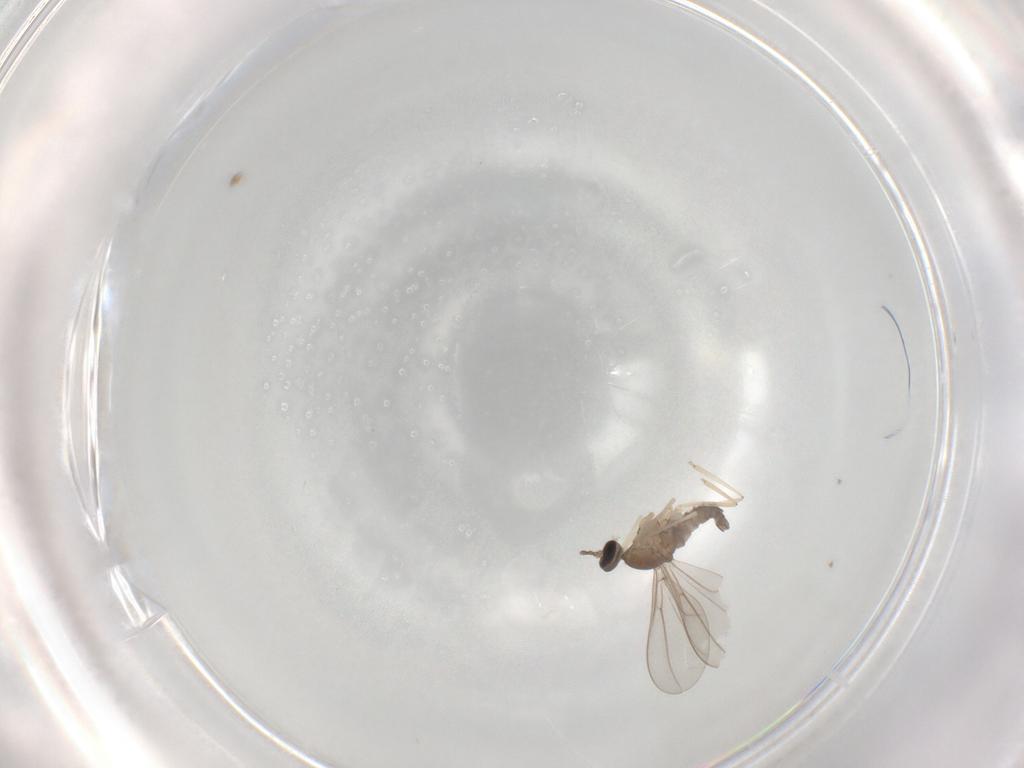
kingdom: Animalia
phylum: Arthropoda
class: Insecta
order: Diptera
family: Cecidomyiidae
